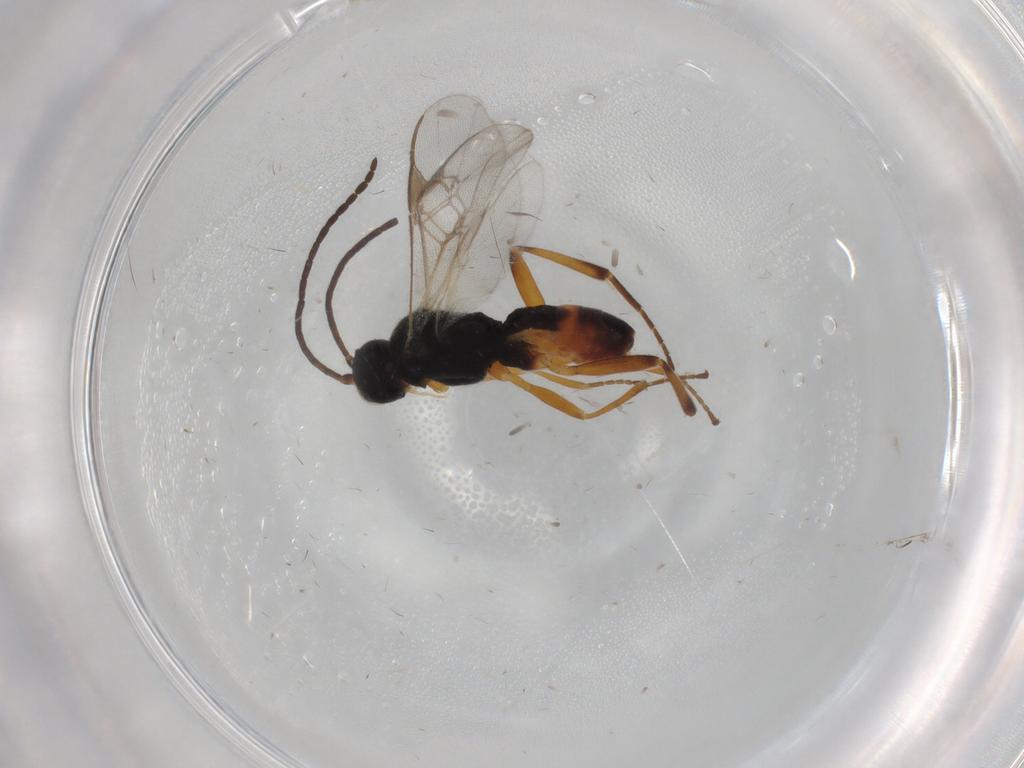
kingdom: Animalia
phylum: Arthropoda
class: Insecta
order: Hymenoptera
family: Braconidae
